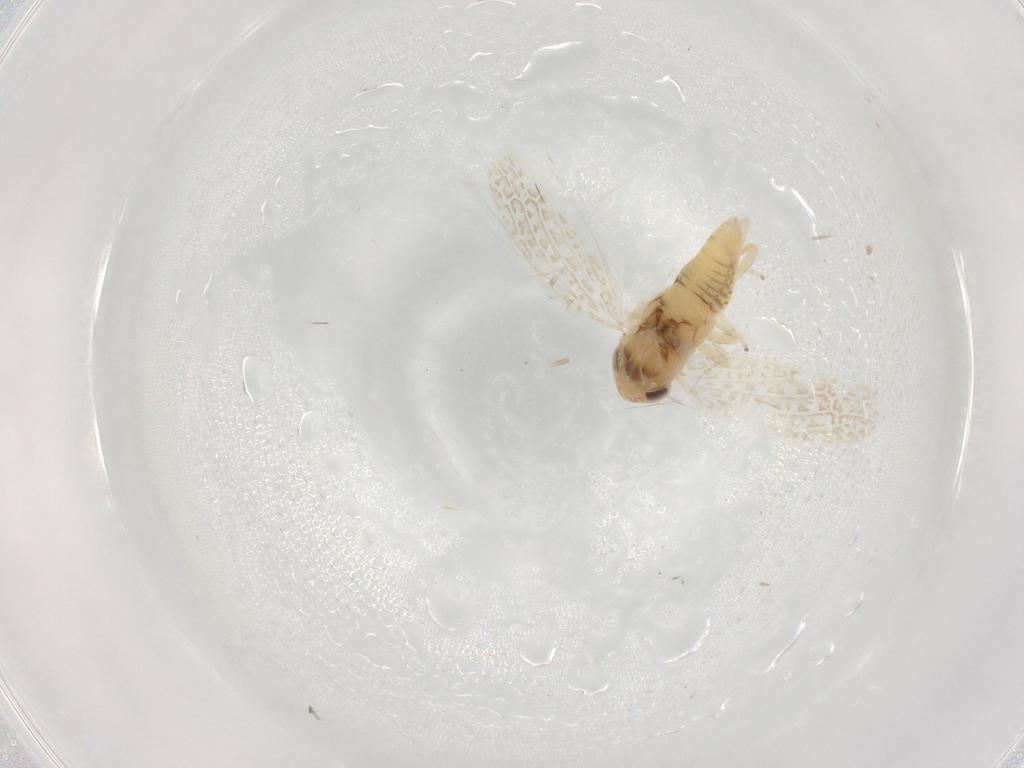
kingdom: Animalia
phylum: Arthropoda
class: Insecta
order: Hemiptera
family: Cicadellidae
